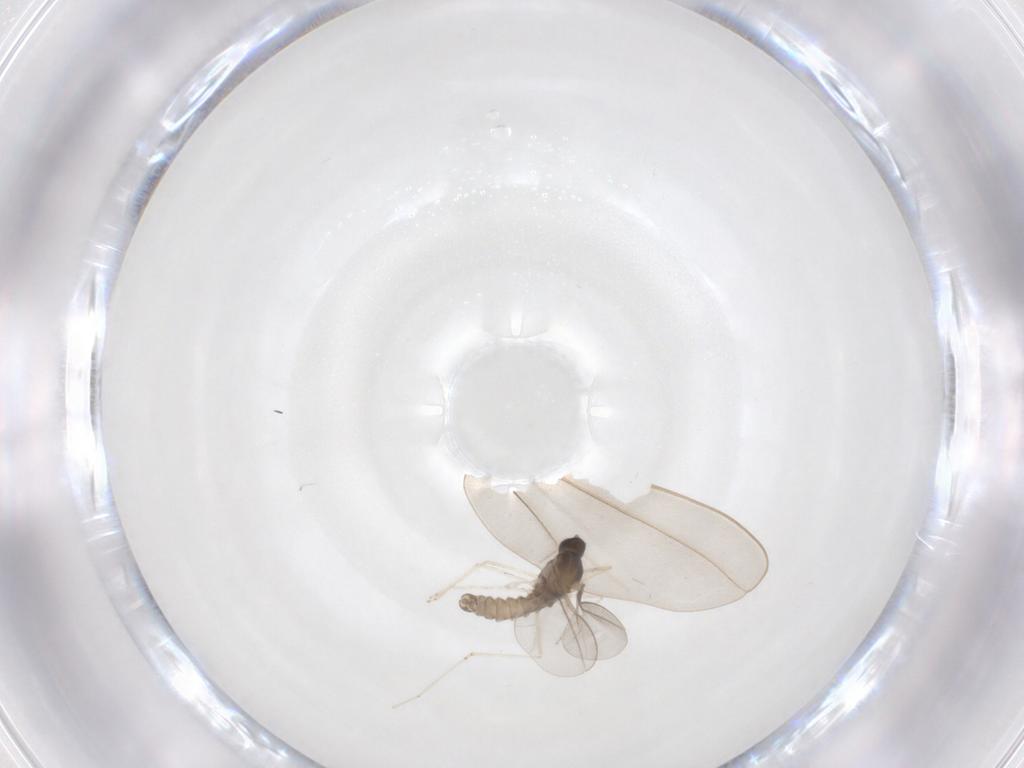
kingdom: Animalia
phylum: Arthropoda
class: Insecta
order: Diptera
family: Cecidomyiidae
